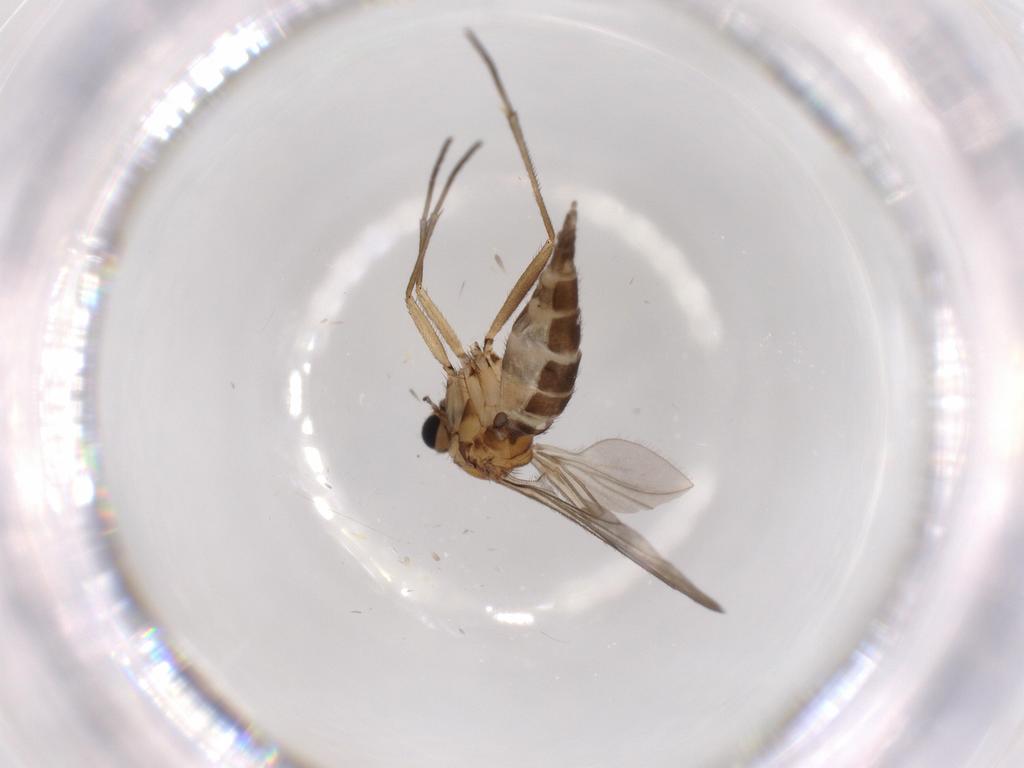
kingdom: Animalia
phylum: Arthropoda
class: Insecta
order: Diptera
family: Sciaridae
